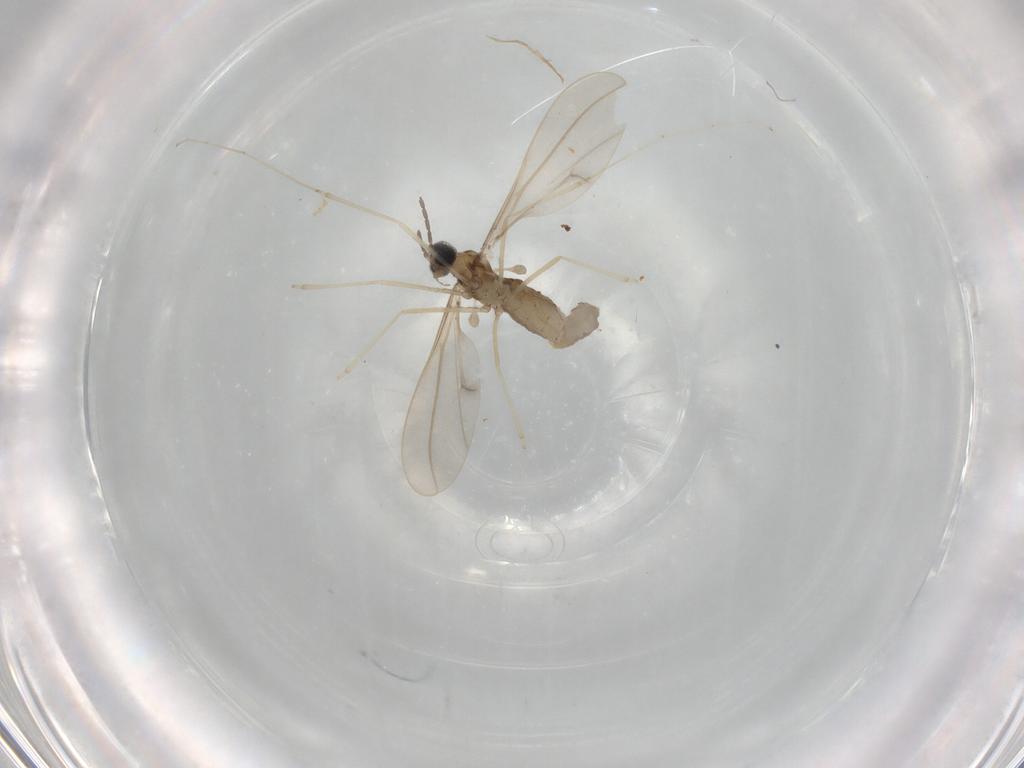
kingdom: Animalia
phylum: Arthropoda
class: Insecta
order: Diptera
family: Cecidomyiidae
